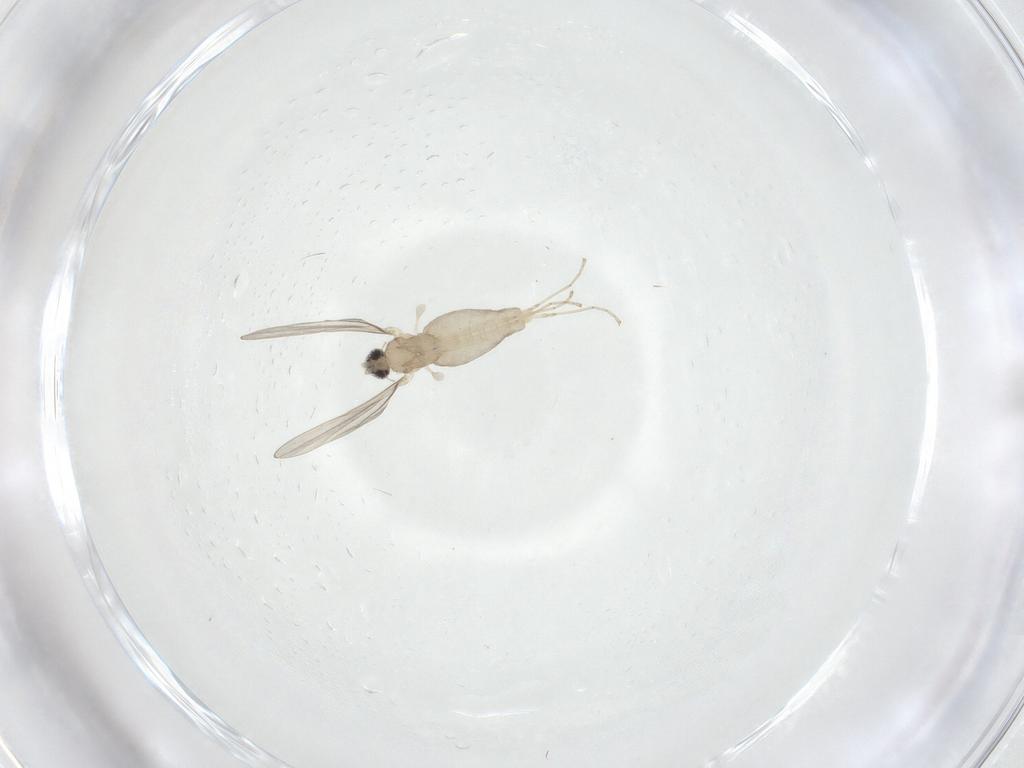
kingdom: Animalia
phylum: Arthropoda
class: Insecta
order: Diptera
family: Cecidomyiidae
